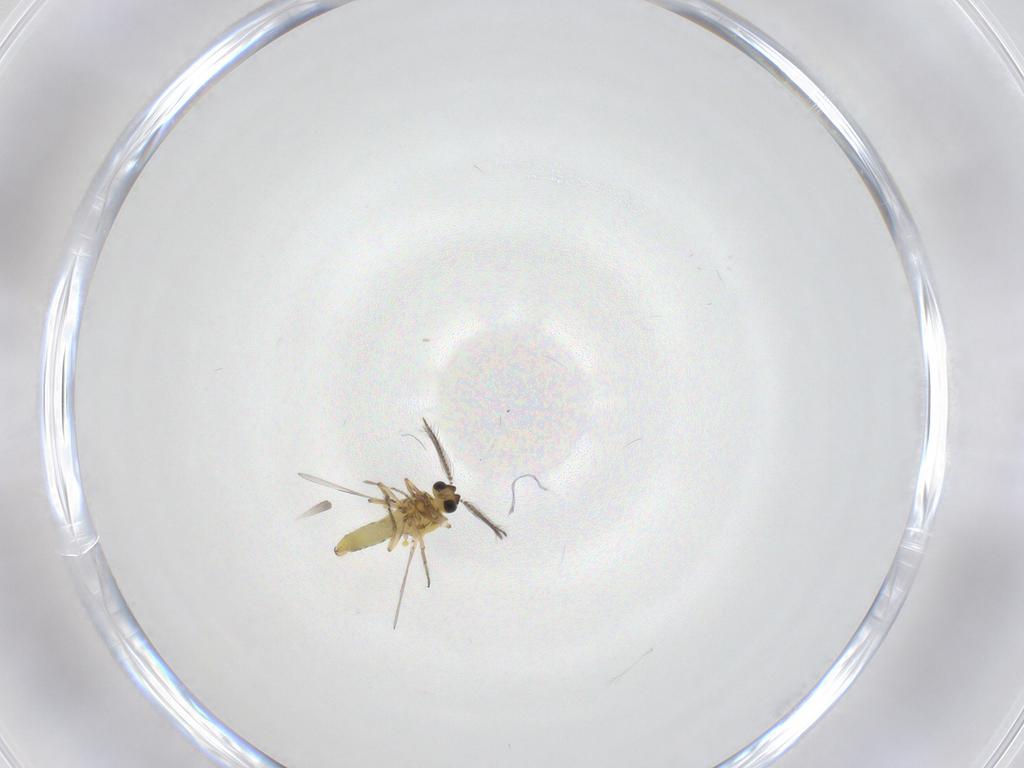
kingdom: Animalia
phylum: Arthropoda
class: Insecta
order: Diptera
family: Ceratopogonidae
